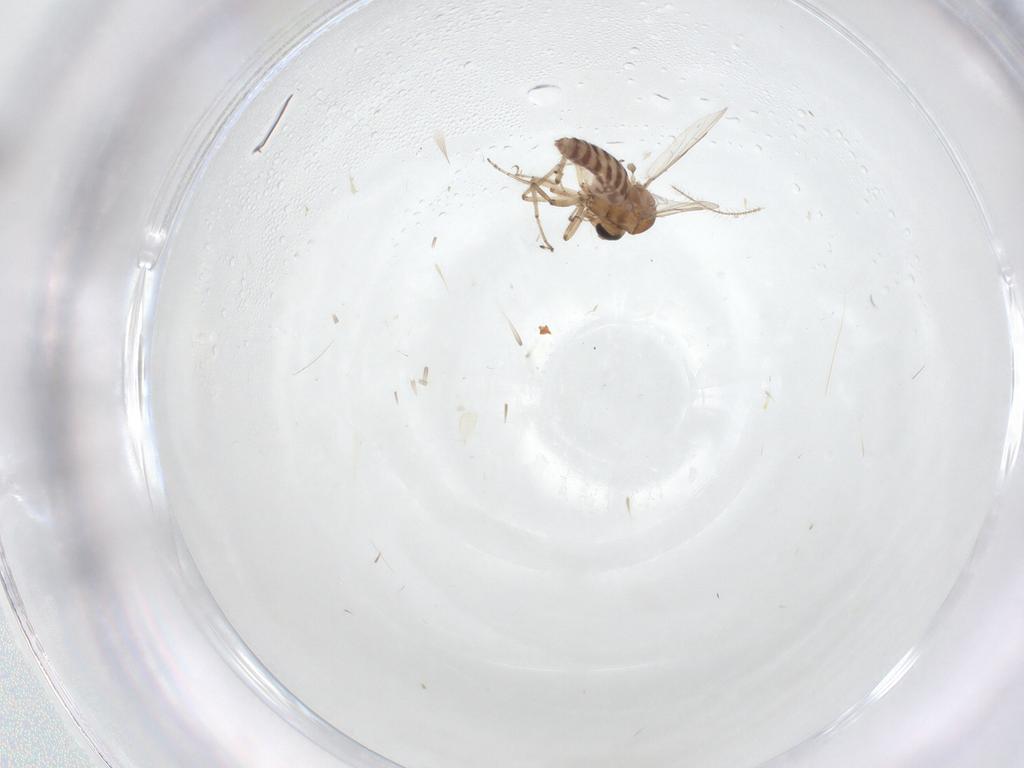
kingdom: Animalia
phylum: Arthropoda
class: Insecta
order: Diptera
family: Ceratopogonidae
